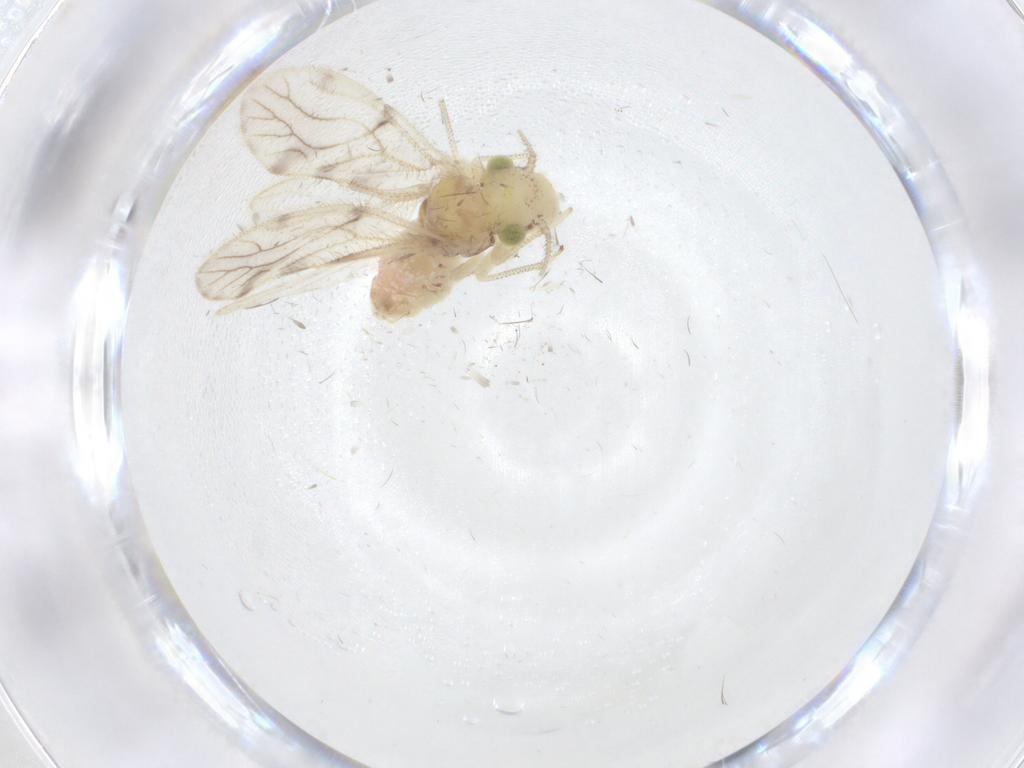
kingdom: Animalia
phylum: Arthropoda
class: Insecta
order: Psocodea
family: Pseudocaeciliidae
